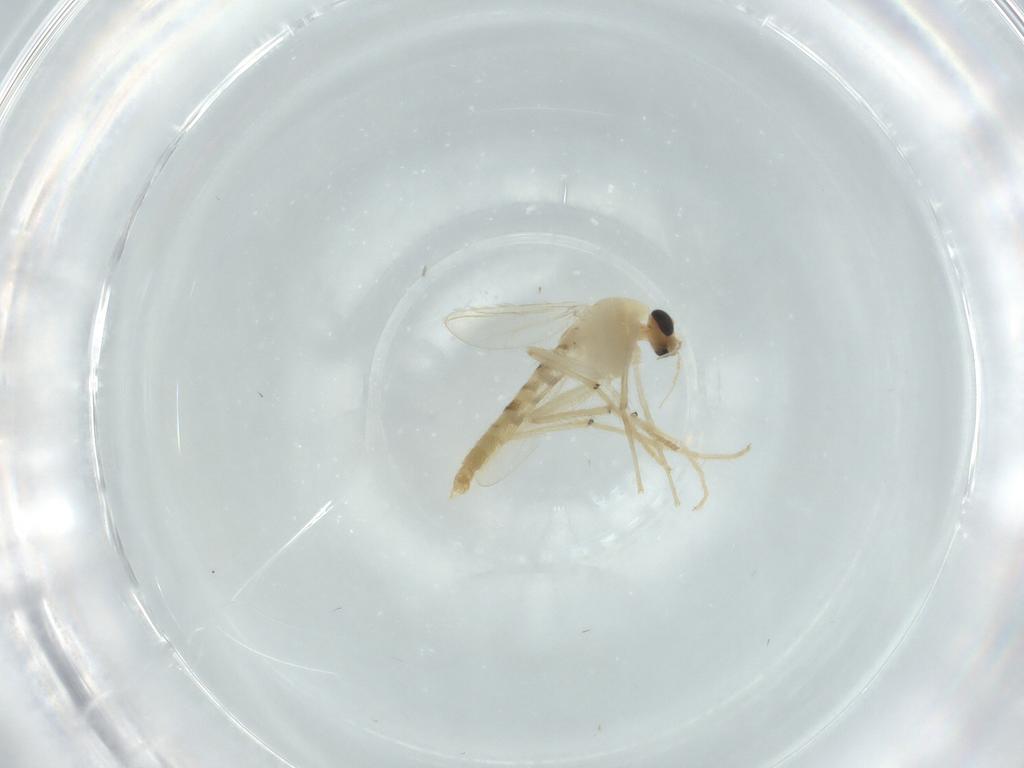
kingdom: Animalia
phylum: Arthropoda
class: Insecta
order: Diptera
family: Chironomidae
